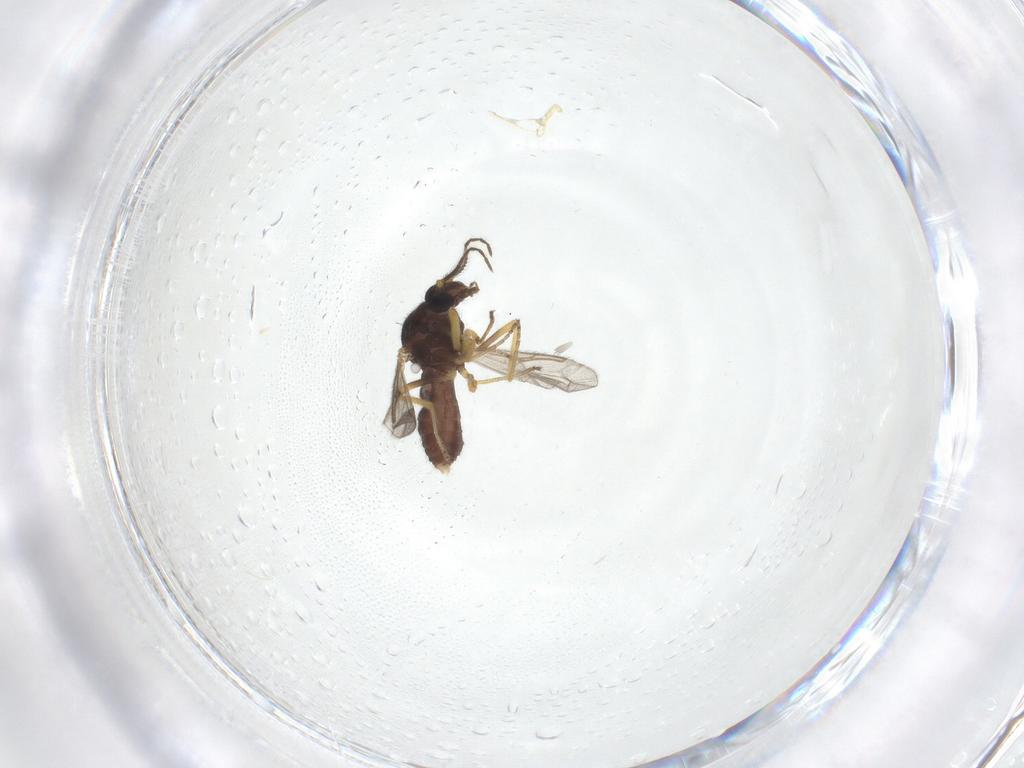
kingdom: Animalia
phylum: Arthropoda
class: Insecta
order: Diptera
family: Ceratopogonidae
